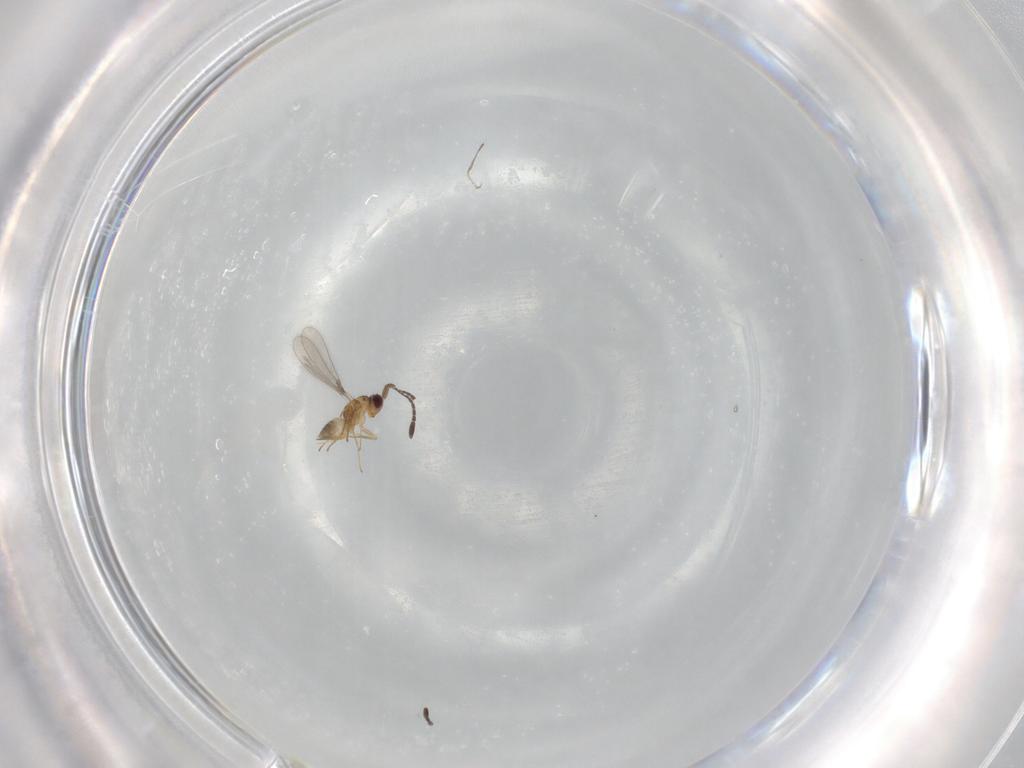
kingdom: Animalia
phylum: Arthropoda
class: Insecta
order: Hymenoptera
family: Mymaridae
